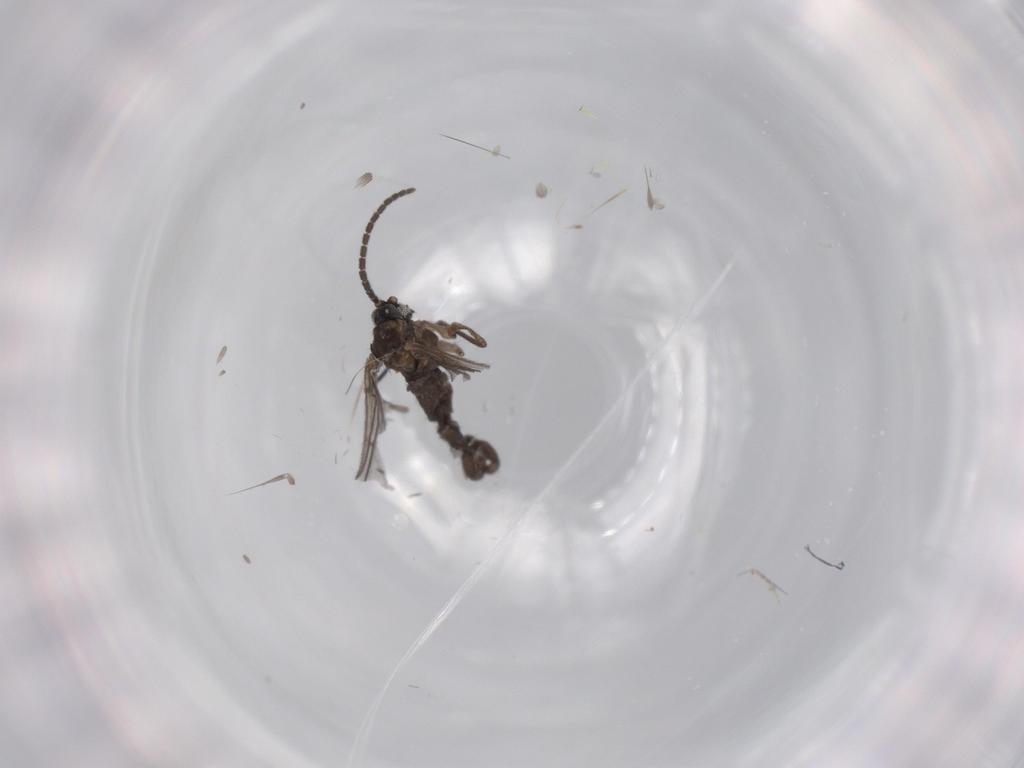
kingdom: Animalia
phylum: Arthropoda
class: Insecta
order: Diptera
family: Sciaridae
